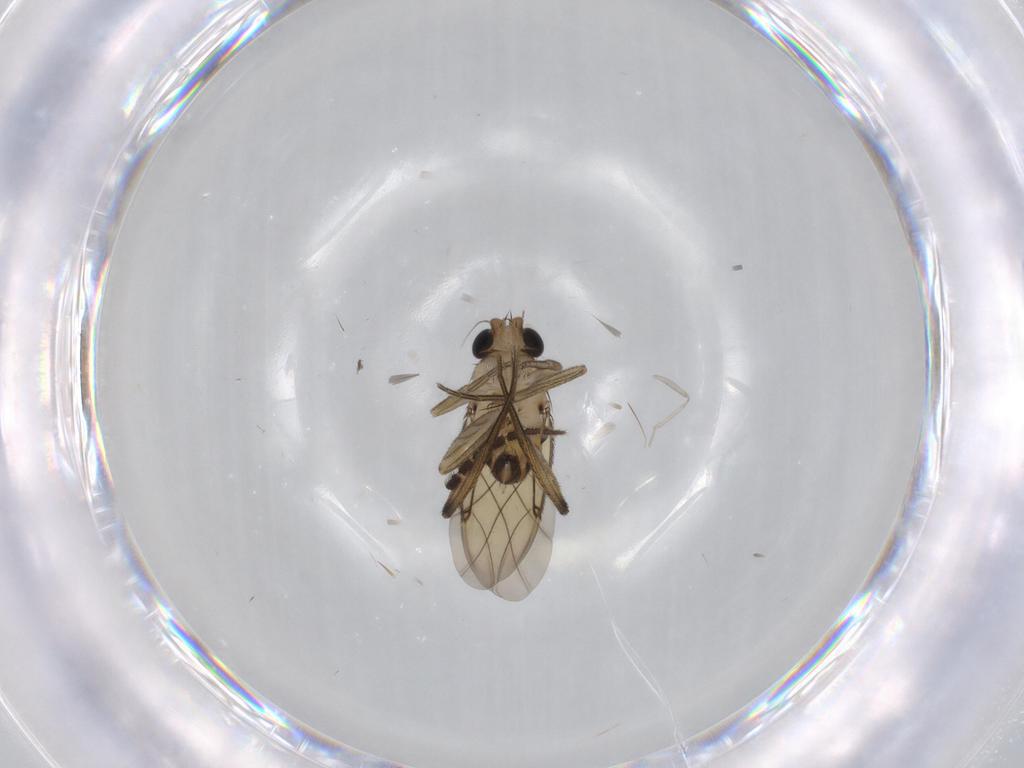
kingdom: Animalia
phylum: Arthropoda
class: Insecta
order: Diptera
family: Phoridae
